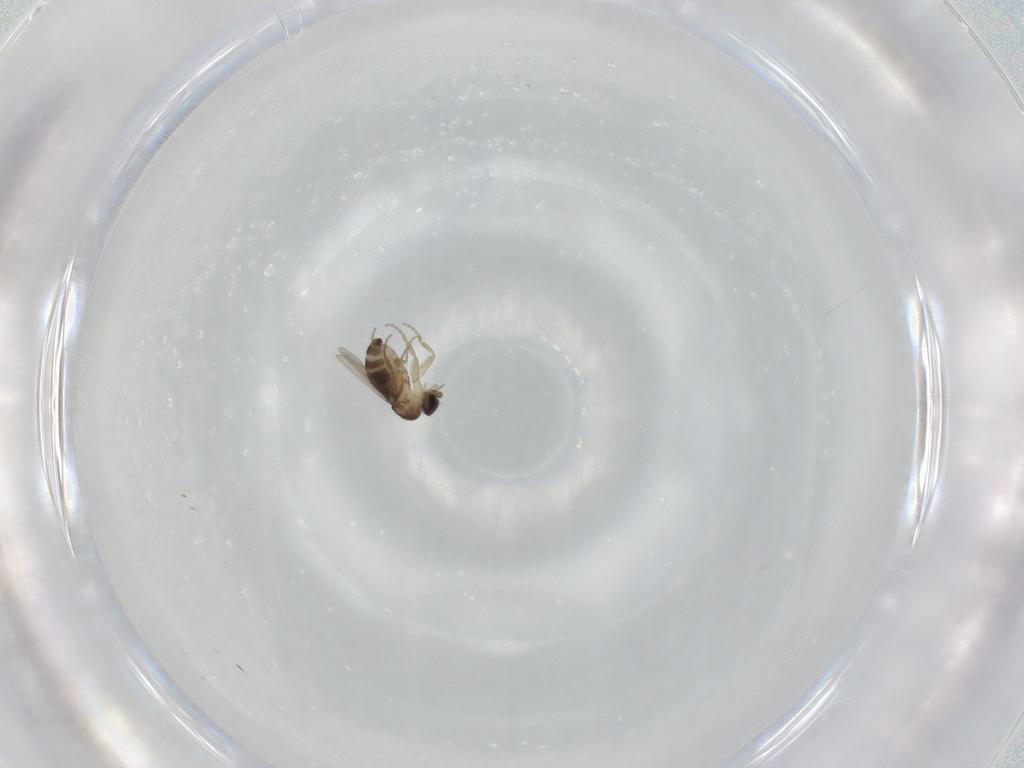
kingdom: Animalia
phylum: Arthropoda
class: Insecta
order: Diptera
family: Phoridae
